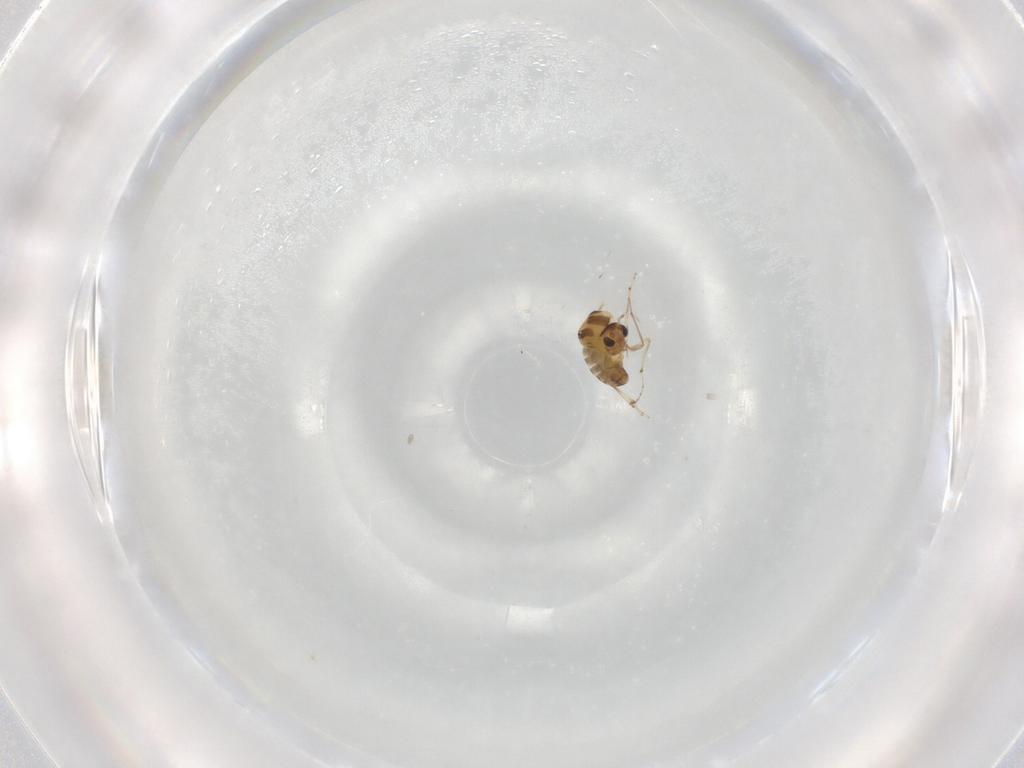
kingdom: Animalia
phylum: Arthropoda
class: Insecta
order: Diptera
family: Chironomidae
